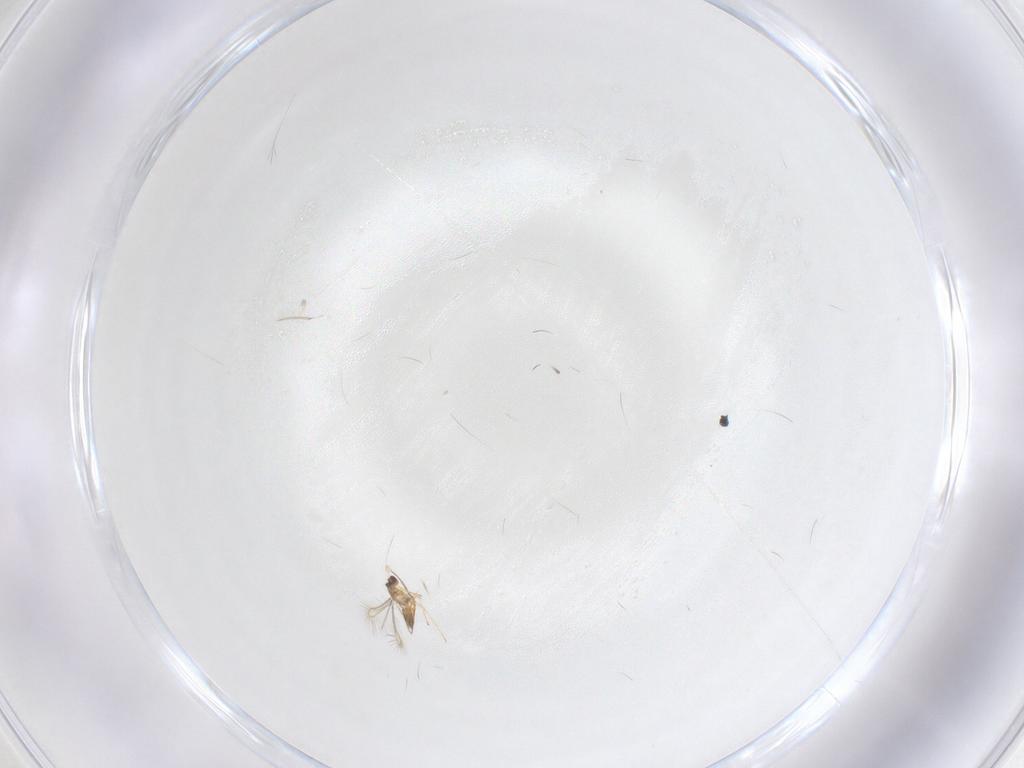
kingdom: Animalia
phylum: Arthropoda
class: Insecta
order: Hymenoptera
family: Mymaridae
